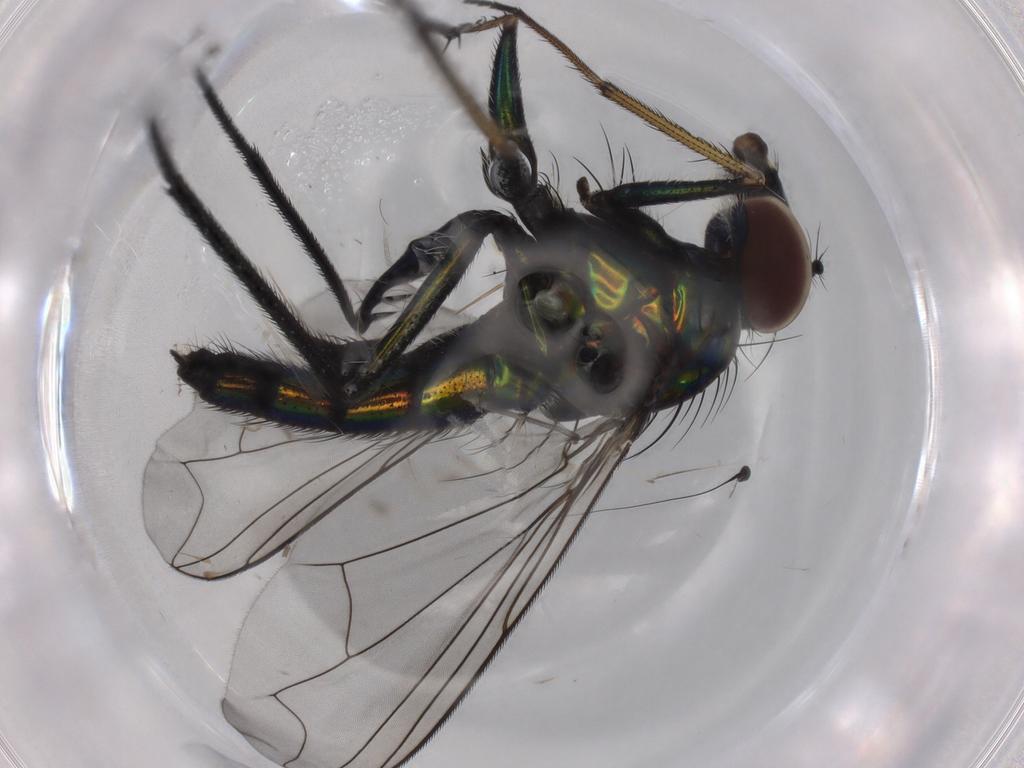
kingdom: Animalia
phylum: Arthropoda
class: Insecta
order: Diptera
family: Dolichopodidae
